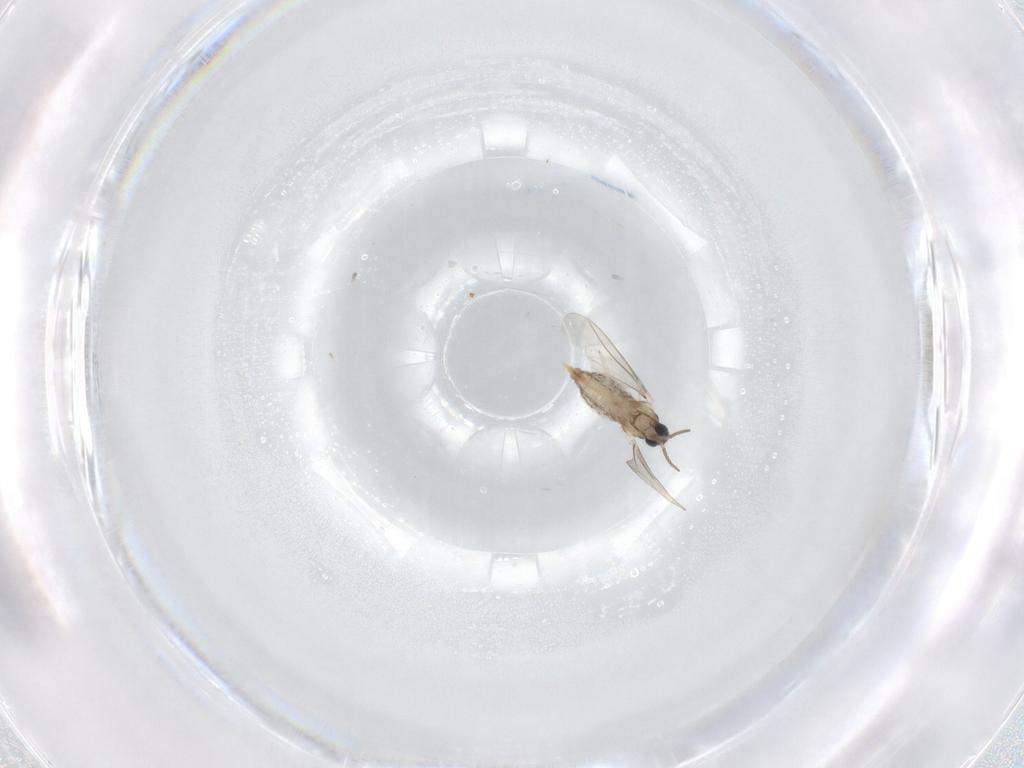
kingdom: Animalia
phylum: Arthropoda
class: Insecta
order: Diptera
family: Cecidomyiidae
